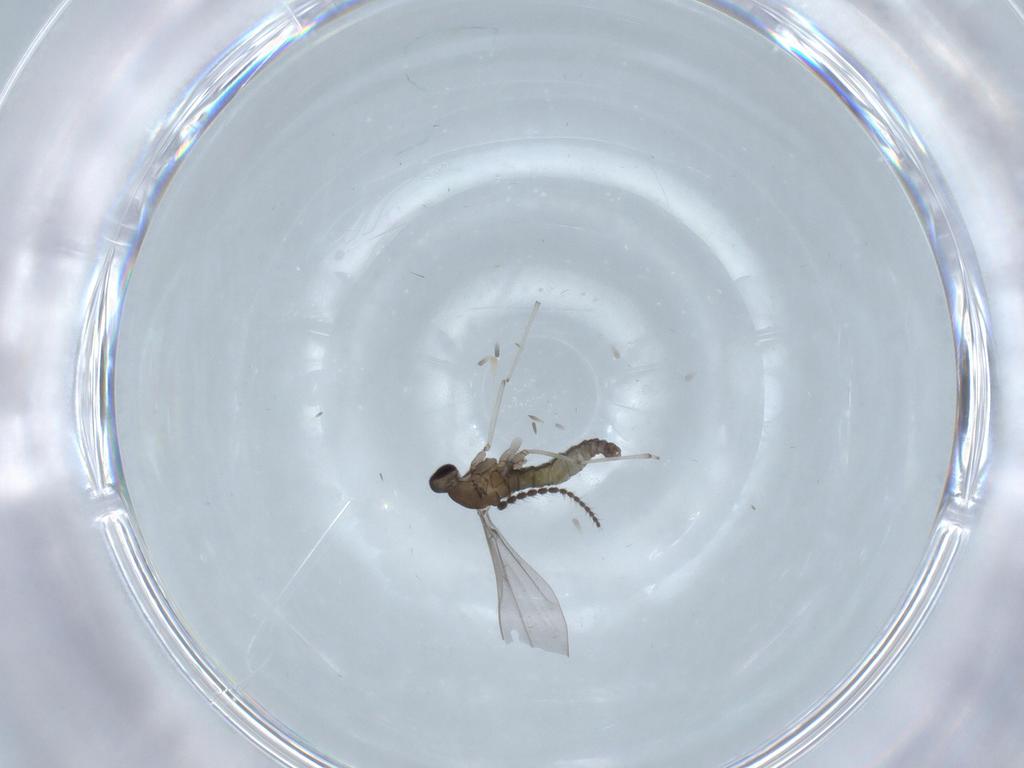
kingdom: Animalia
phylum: Arthropoda
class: Insecta
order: Diptera
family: Cecidomyiidae
